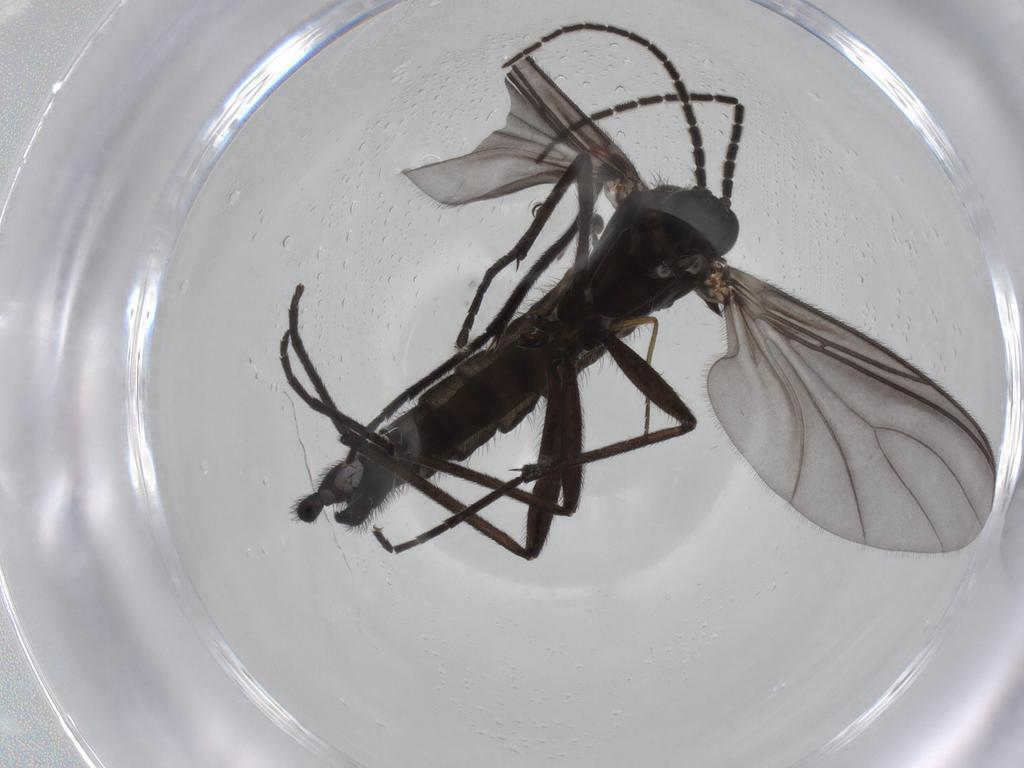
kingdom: Animalia
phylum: Arthropoda
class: Insecta
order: Diptera
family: Sciaridae
